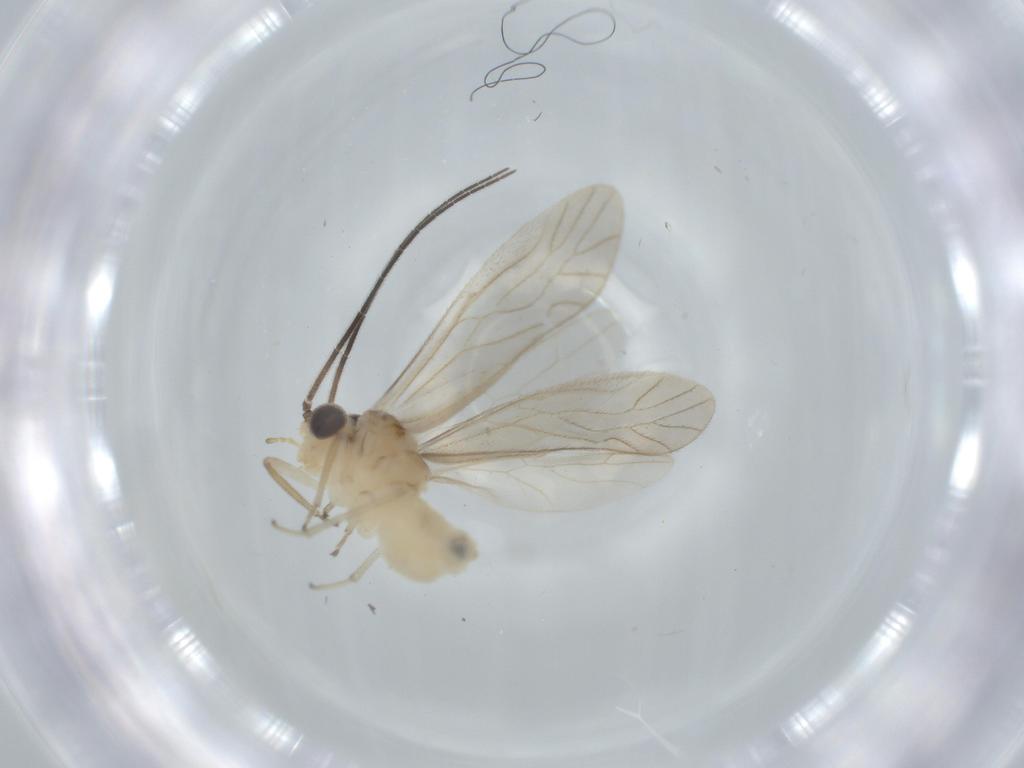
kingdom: Animalia
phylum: Arthropoda
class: Insecta
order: Psocodea
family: Caeciliusidae
